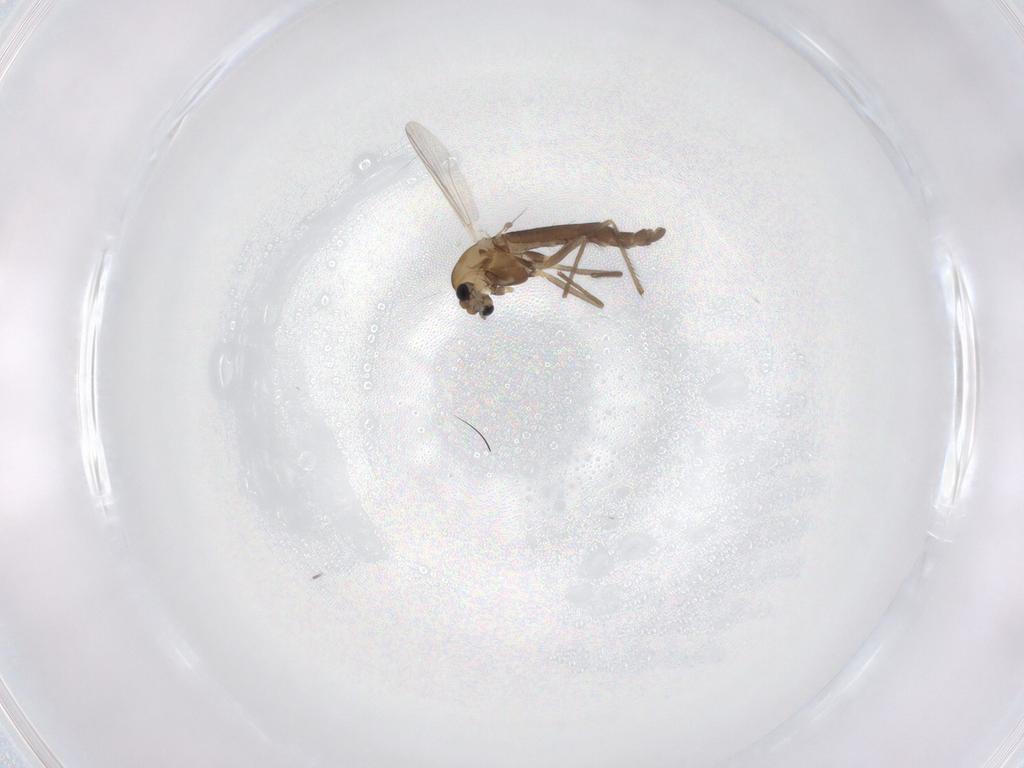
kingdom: Animalia
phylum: Arthropoda
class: Insecta
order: Diptera
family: Chironomidae
